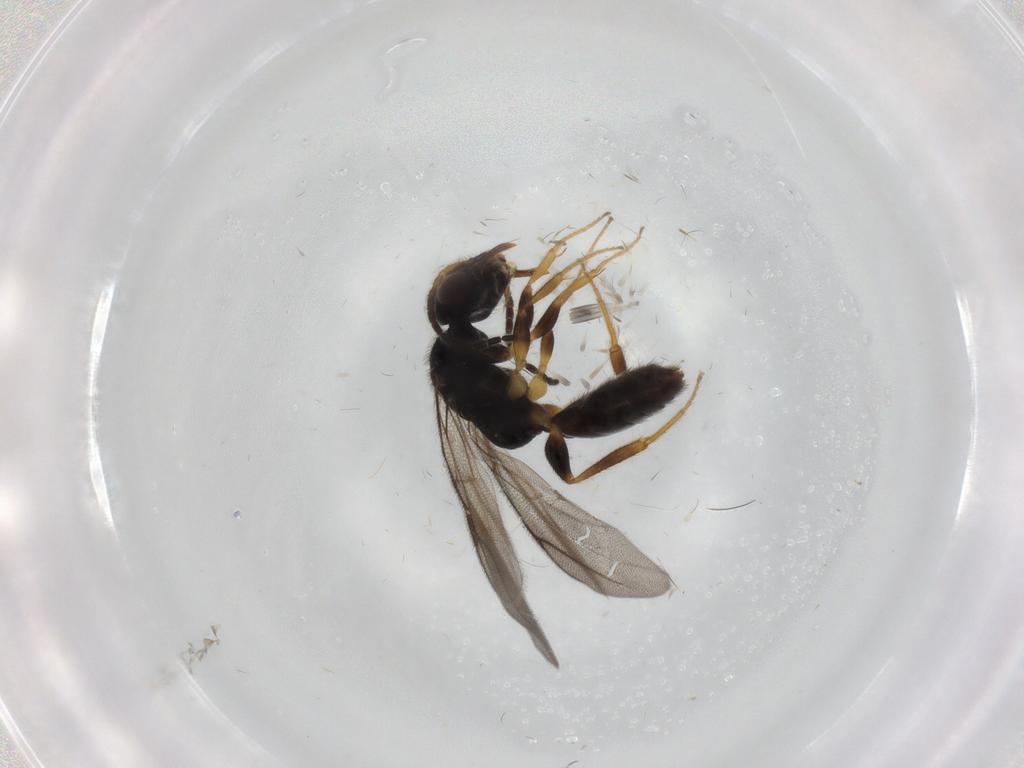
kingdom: Animalia
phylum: Arthropoda
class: Insecta
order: Hymenoptera
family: Bethylidae
